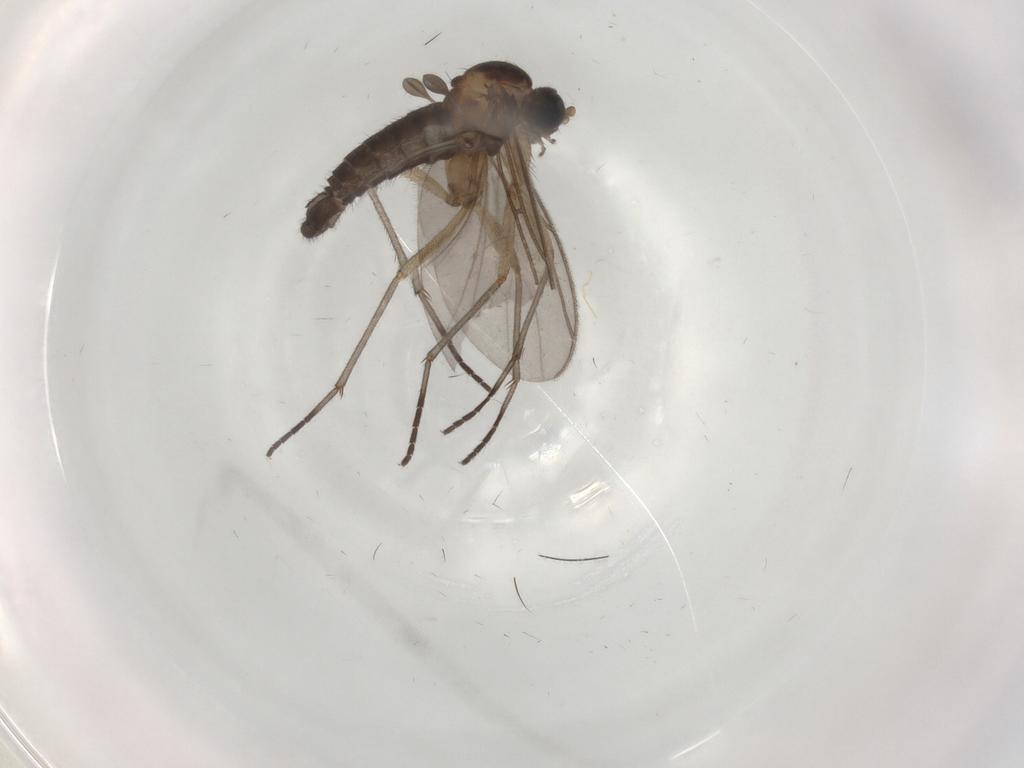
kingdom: Animalia
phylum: Arthropoda
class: Insecta
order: Diptera
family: Sciaridae
